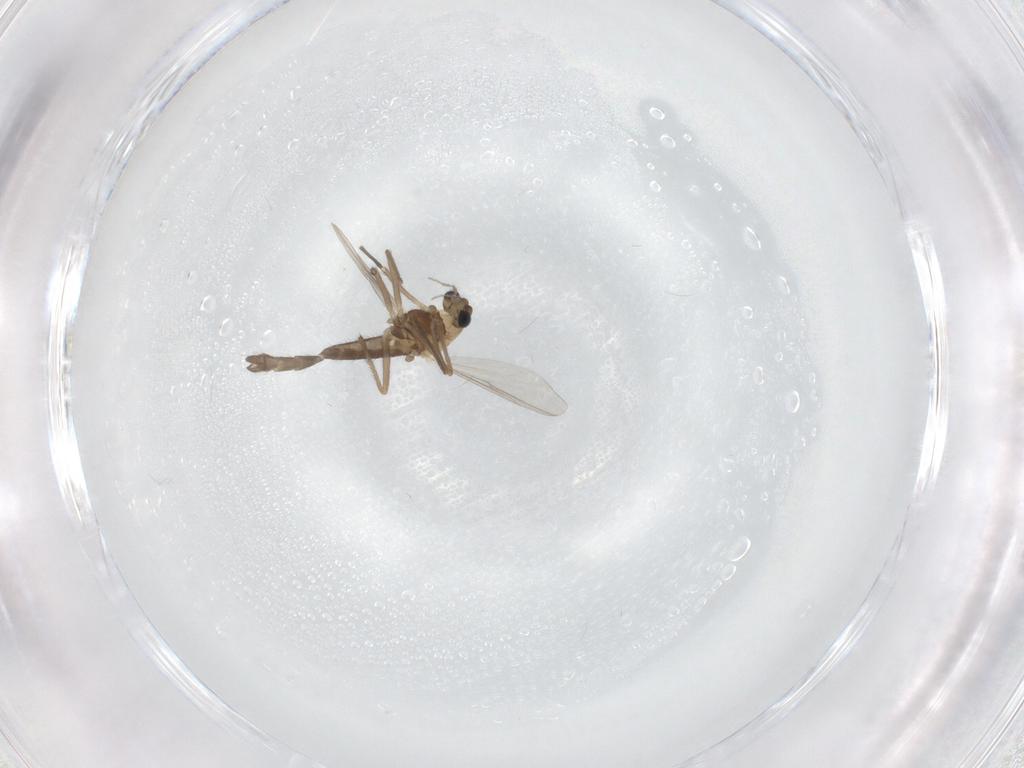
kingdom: Animalia
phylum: Arthropoda
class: Insecta
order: Diptera
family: Chironomidae
